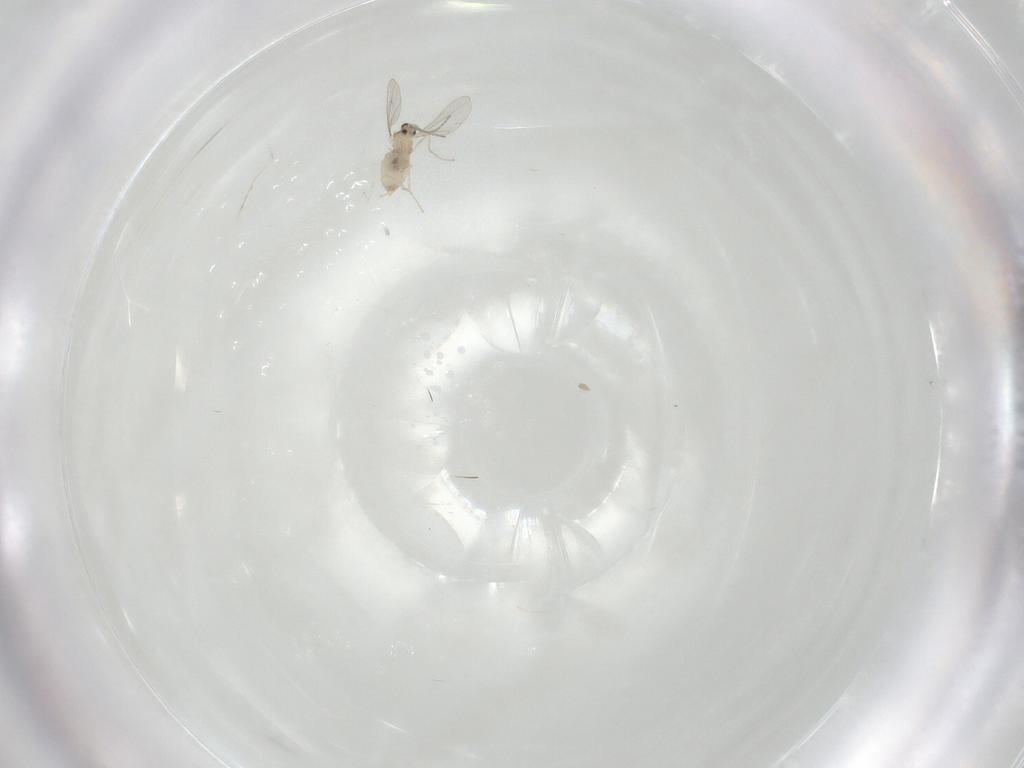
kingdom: Animalia
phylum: Arthropoda
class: Insecta
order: Diptera
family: Cecidomyiidae
